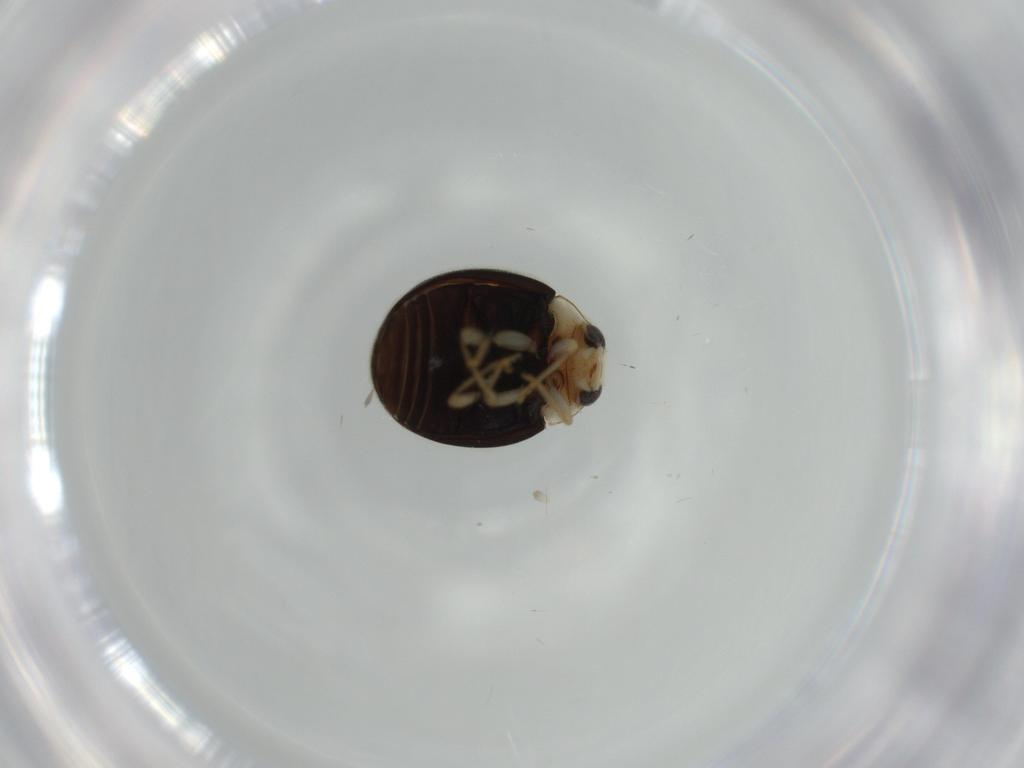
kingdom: Animalia
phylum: Arthropoda
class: Insecta
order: Coleoptera
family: Coccinellidae
